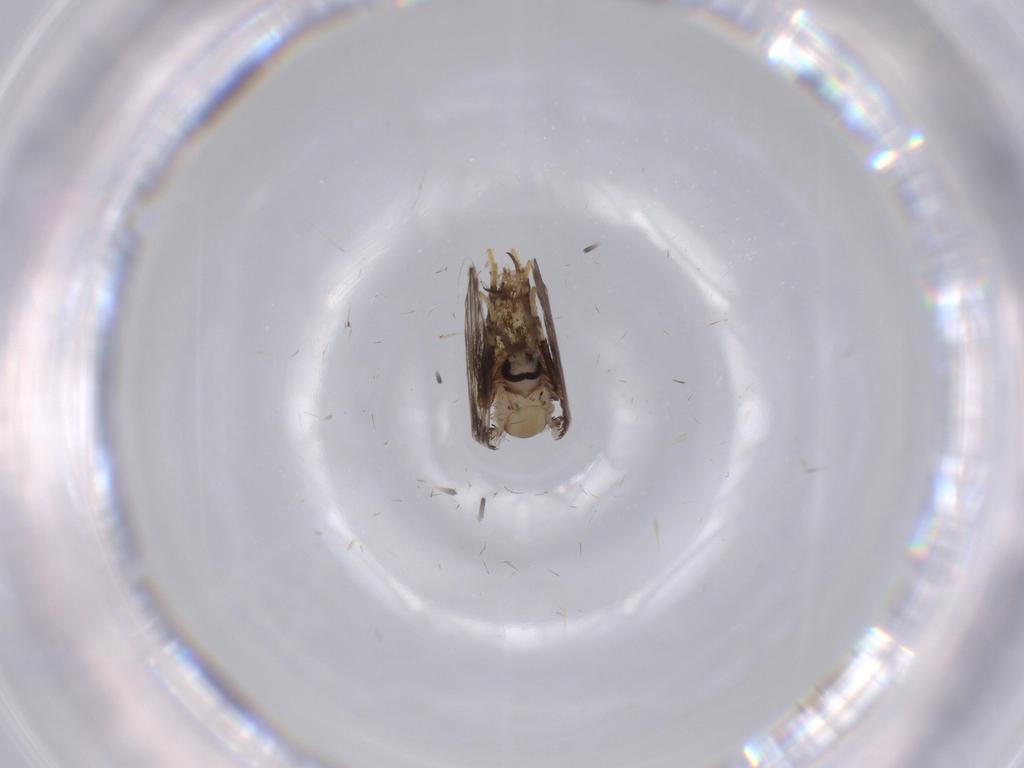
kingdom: Animalia
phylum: Arthropoda
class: Insecta
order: Diptera
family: Psychodidae
